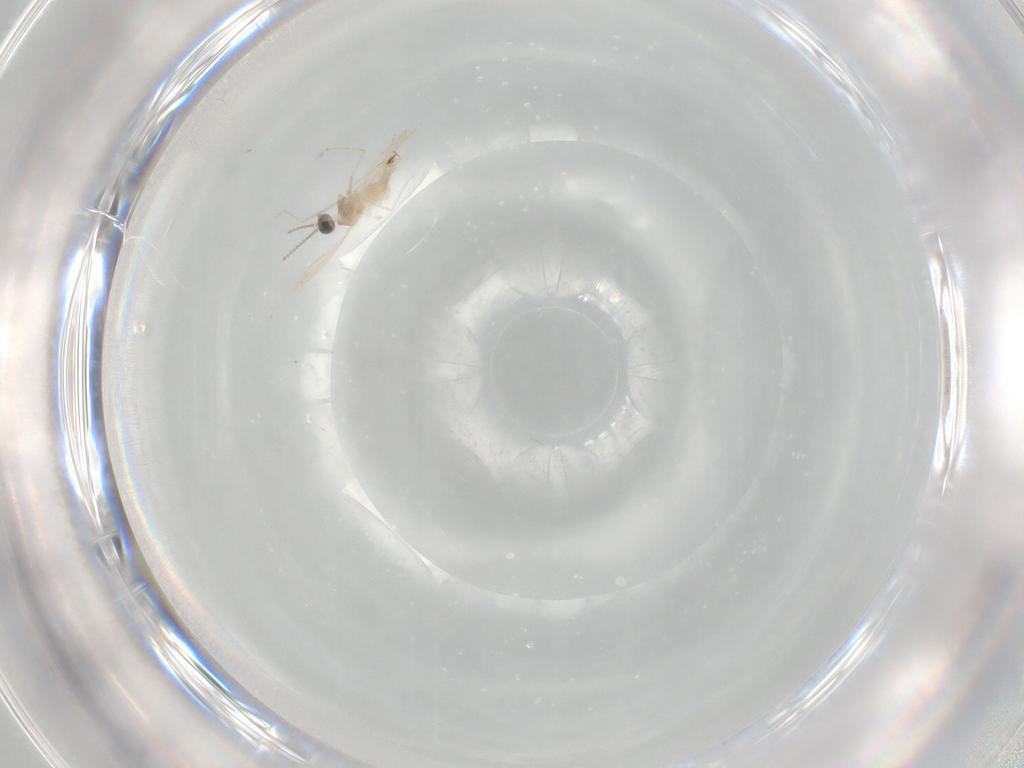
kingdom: Animalia
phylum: Arthropoda
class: Insecta
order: Diptera
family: Cecidomyiidae
